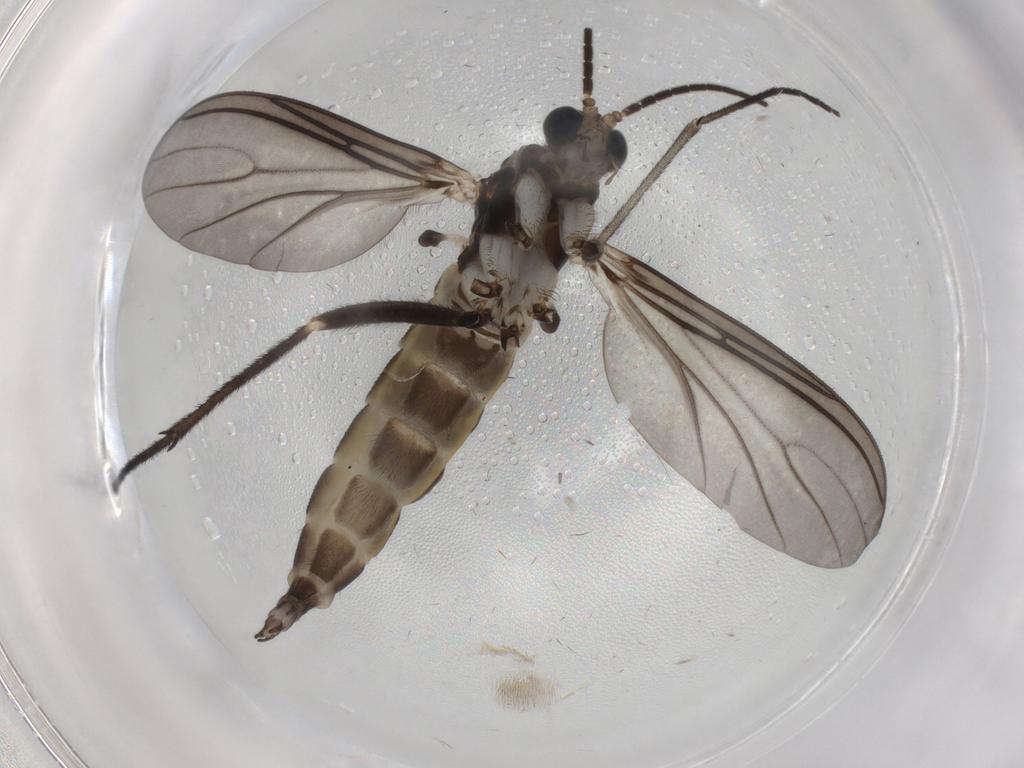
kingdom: Animalia
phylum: Arthropoda
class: Insecta
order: Diptera
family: Sciaridae
